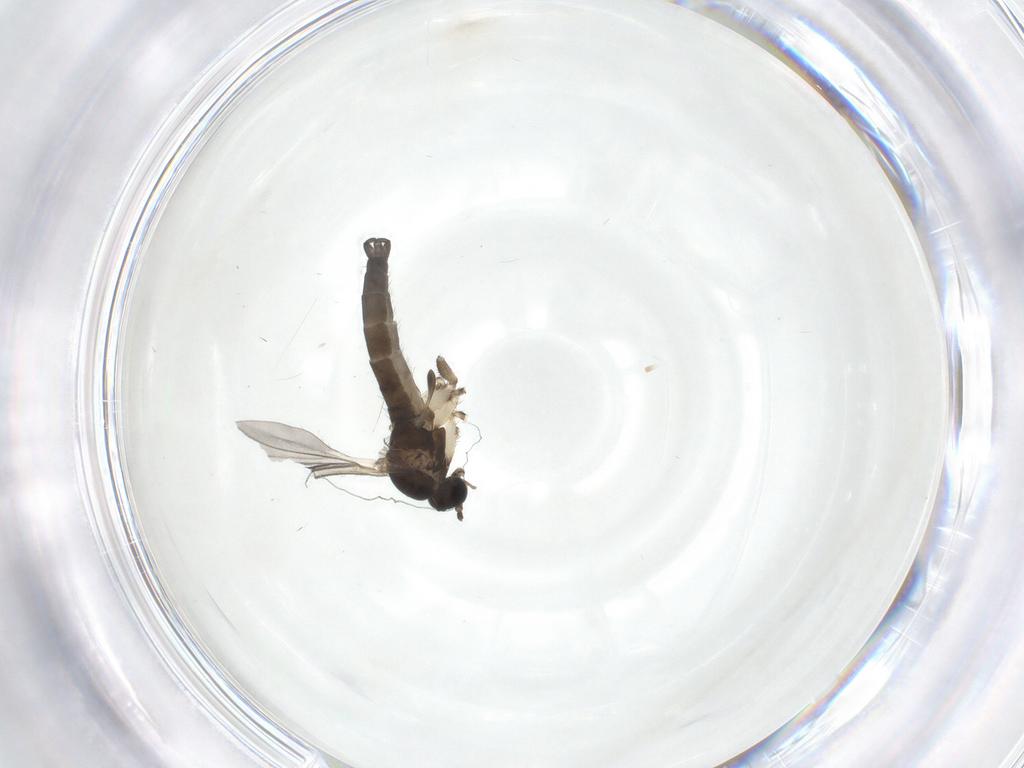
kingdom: Animalia
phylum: Arthropoda
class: Insecta
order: Diptera
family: Sciaridae
